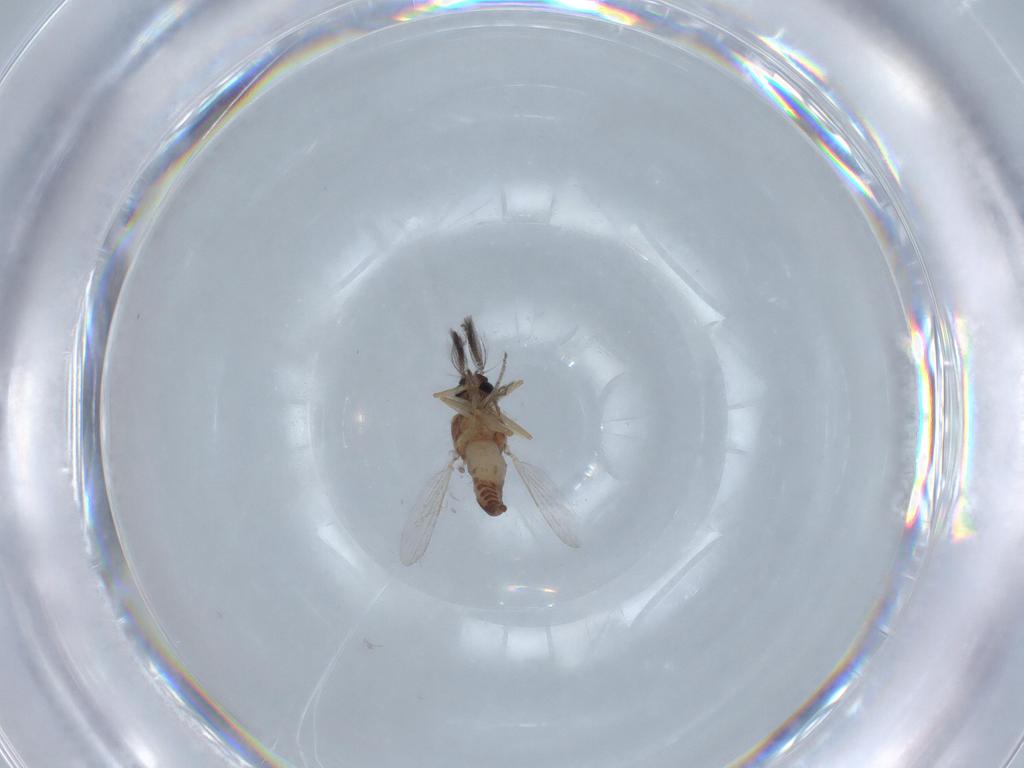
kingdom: Animalia
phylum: Arthropoda
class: Insecta
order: Diptera
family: Ceratopogonidae
